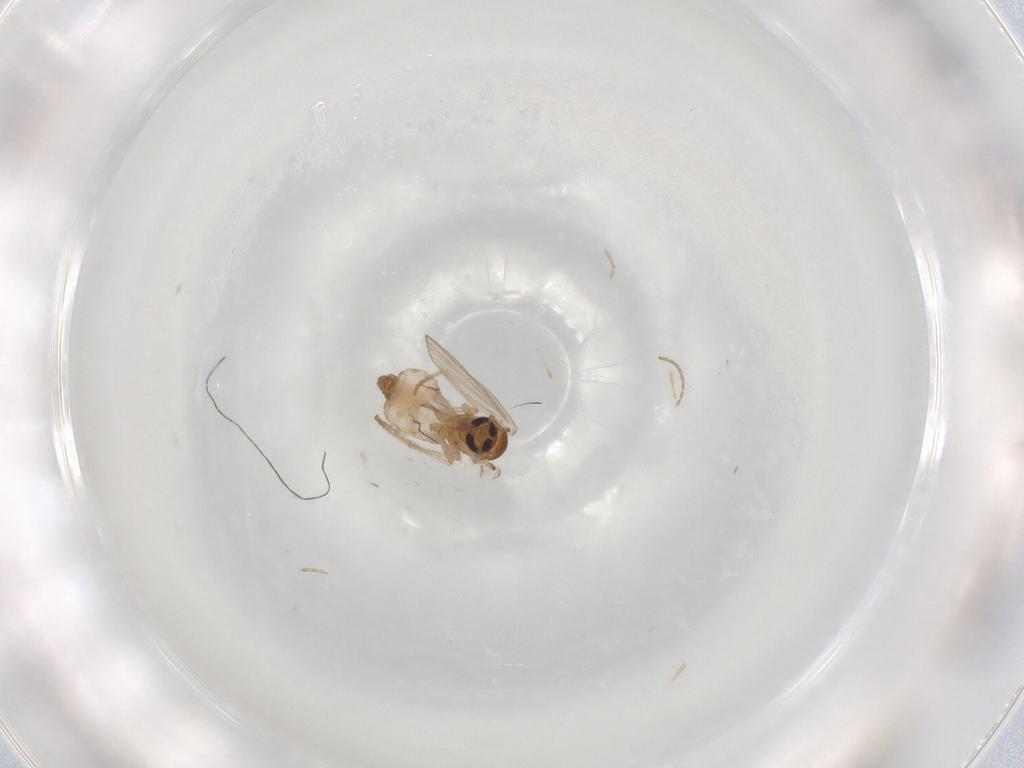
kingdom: Animalia
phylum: Arthropoda
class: Insecta
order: Diptera
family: Psychodidae
